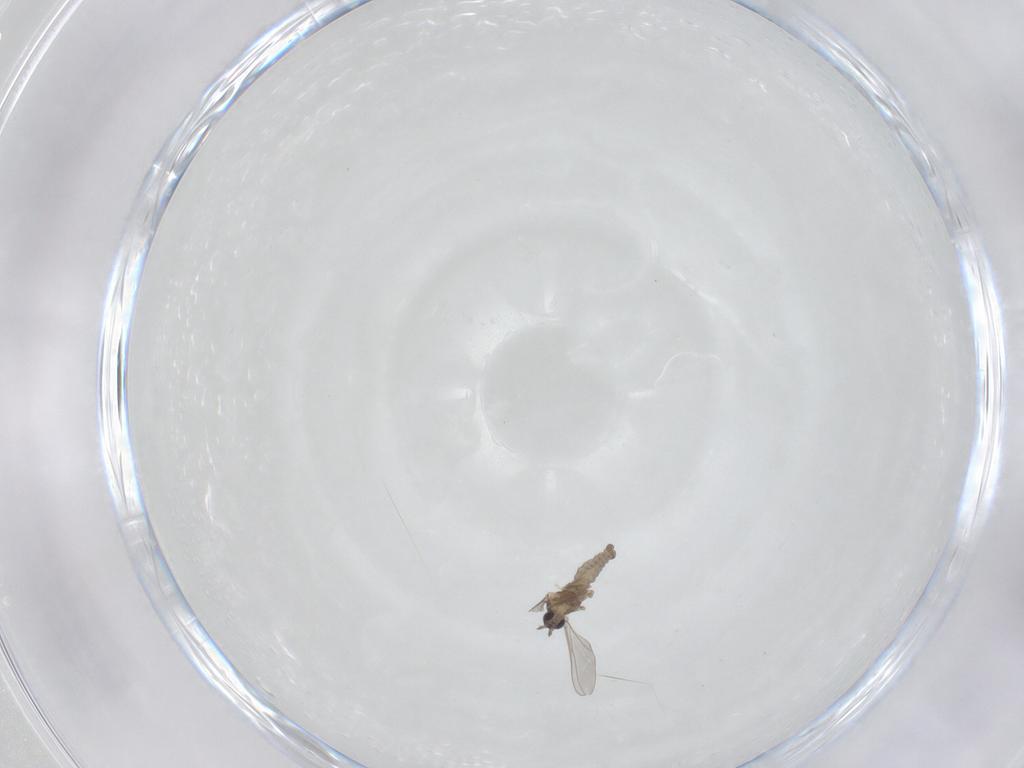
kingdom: Animalia
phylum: Arthropoda
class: Insecta
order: Diptera
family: Cecidomyiidae
